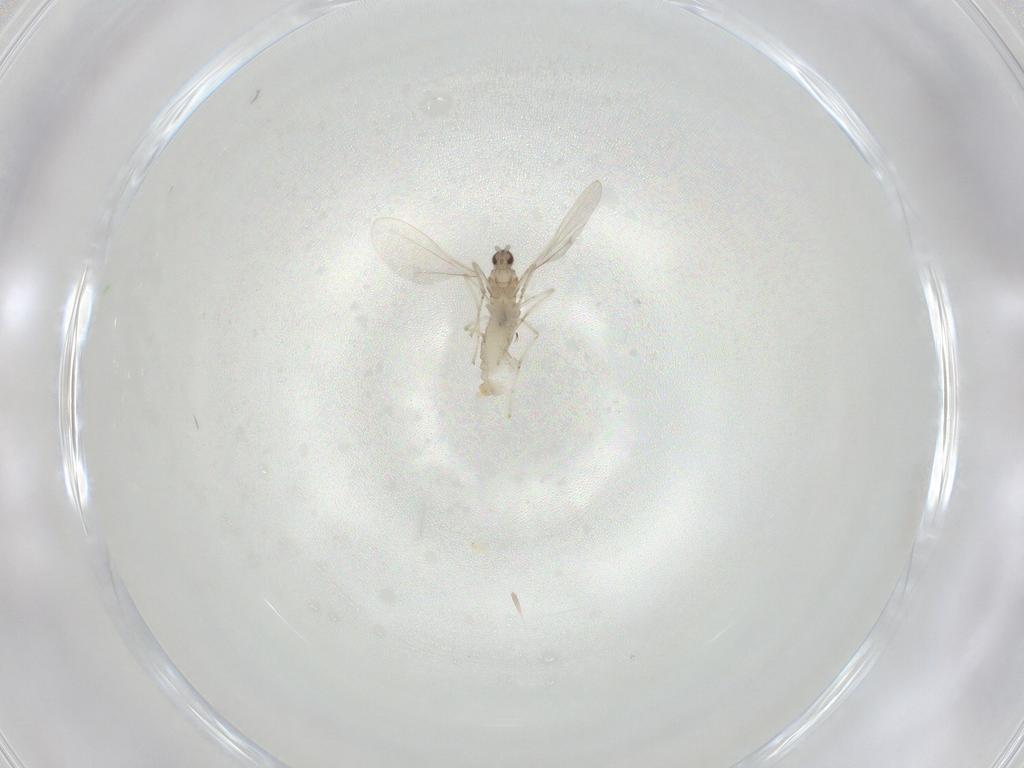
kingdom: Animalia
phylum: Arthropoda
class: Insecta
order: Diptera
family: Cecidomyiidae
